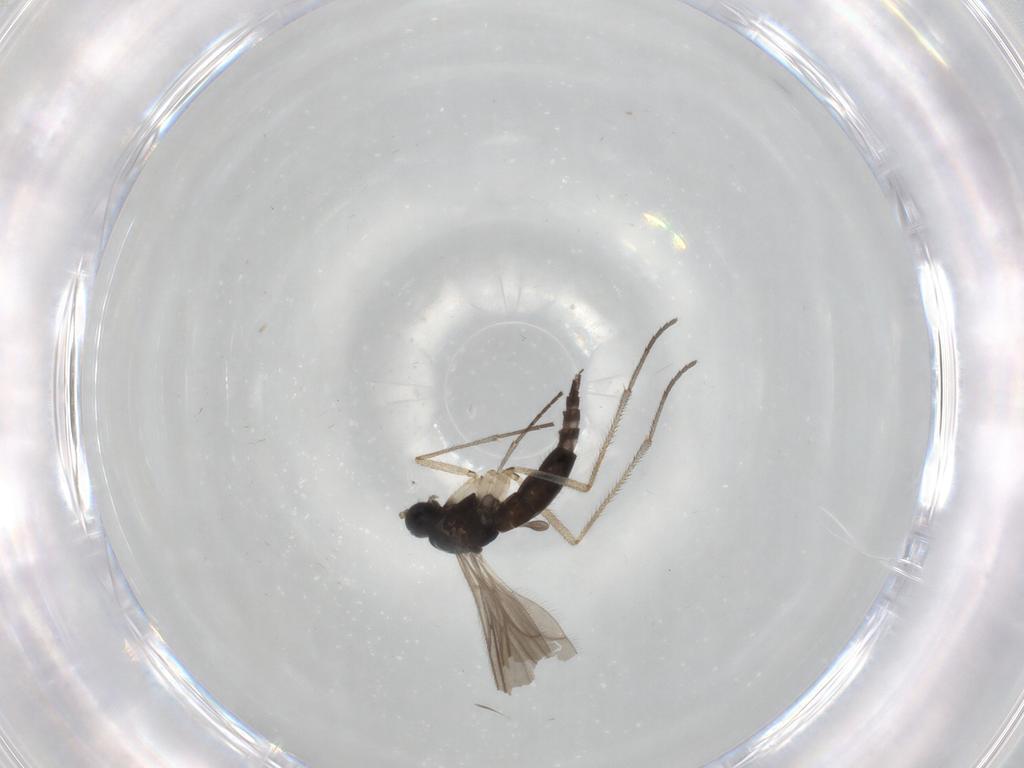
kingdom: Animalia
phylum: Arthropoda
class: Insecta
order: Diptera
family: Sciaridae
